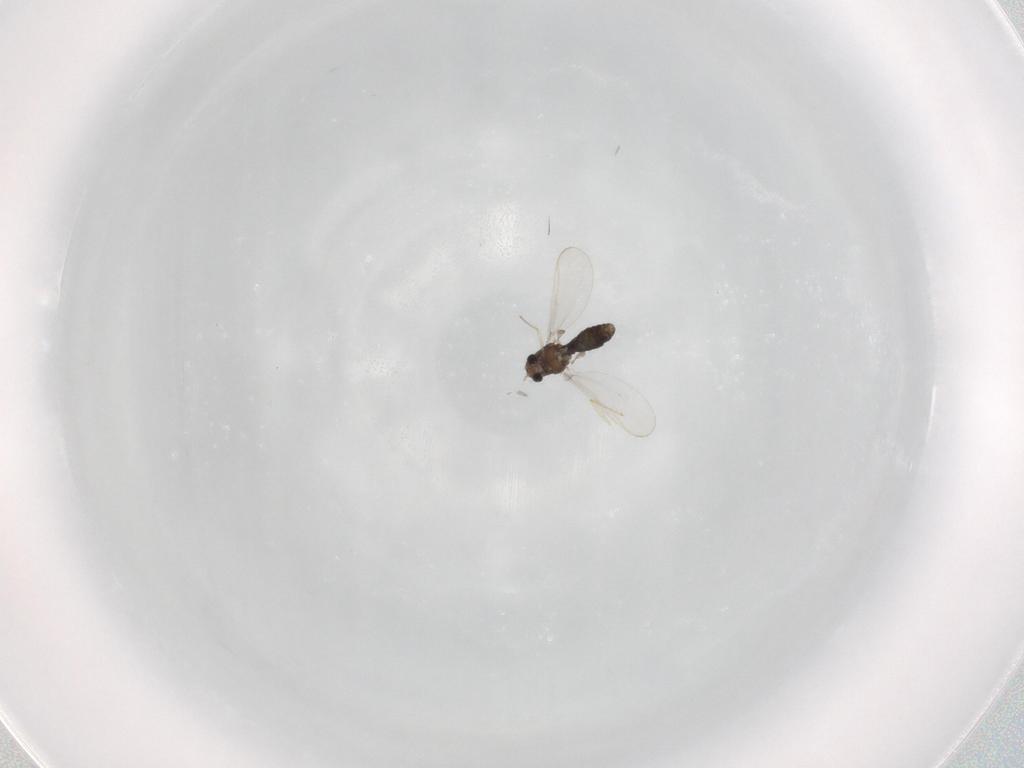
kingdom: Animalia
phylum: Arthropoda
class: Insecta
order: Diptera
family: Chironomidae
